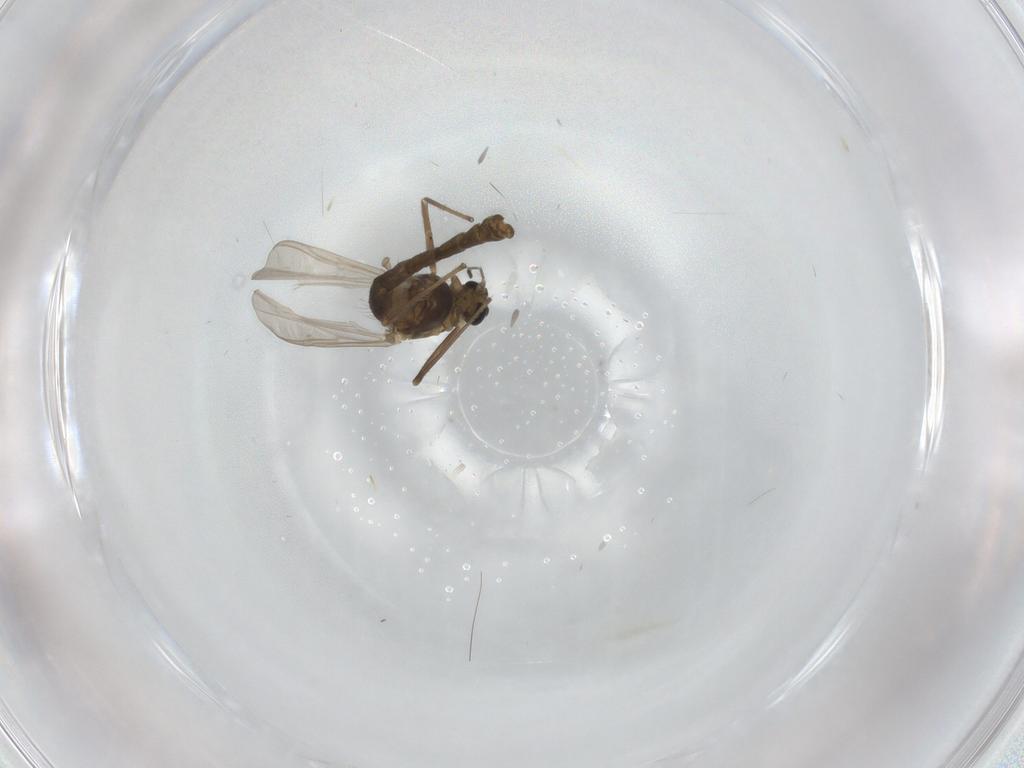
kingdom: Animalia
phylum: Arthropoda
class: Insecta
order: Diptera
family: Chironomidae
